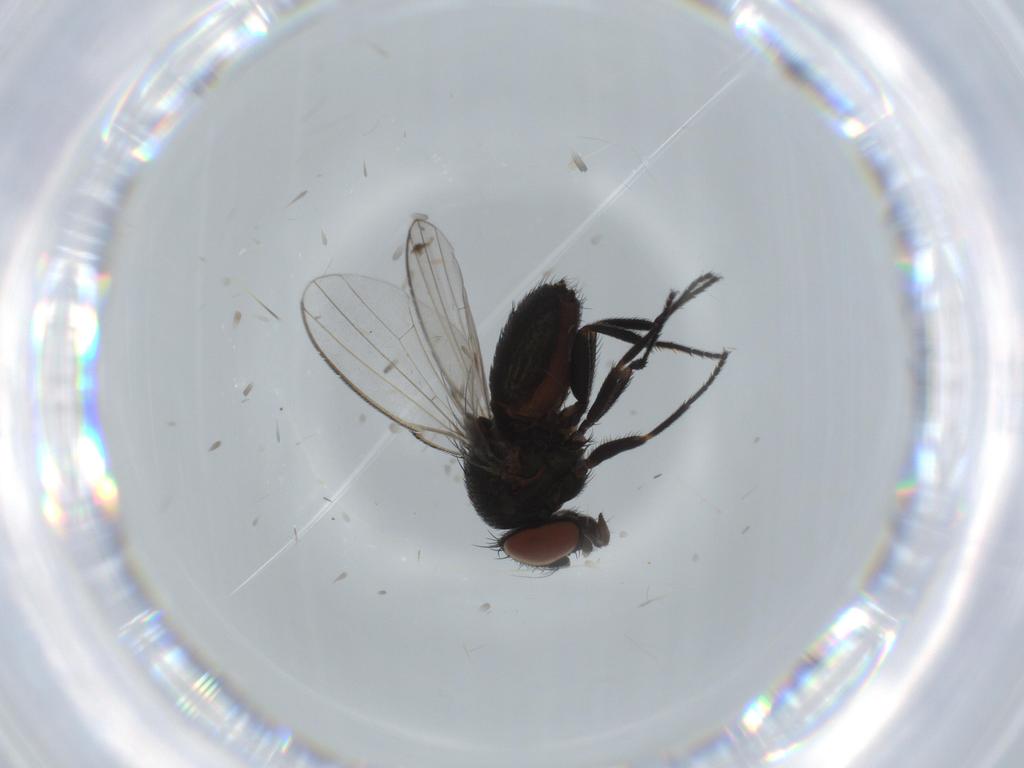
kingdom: Animalia
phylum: Arthropoda
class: Insecta
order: Diptera
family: Milichiidae
